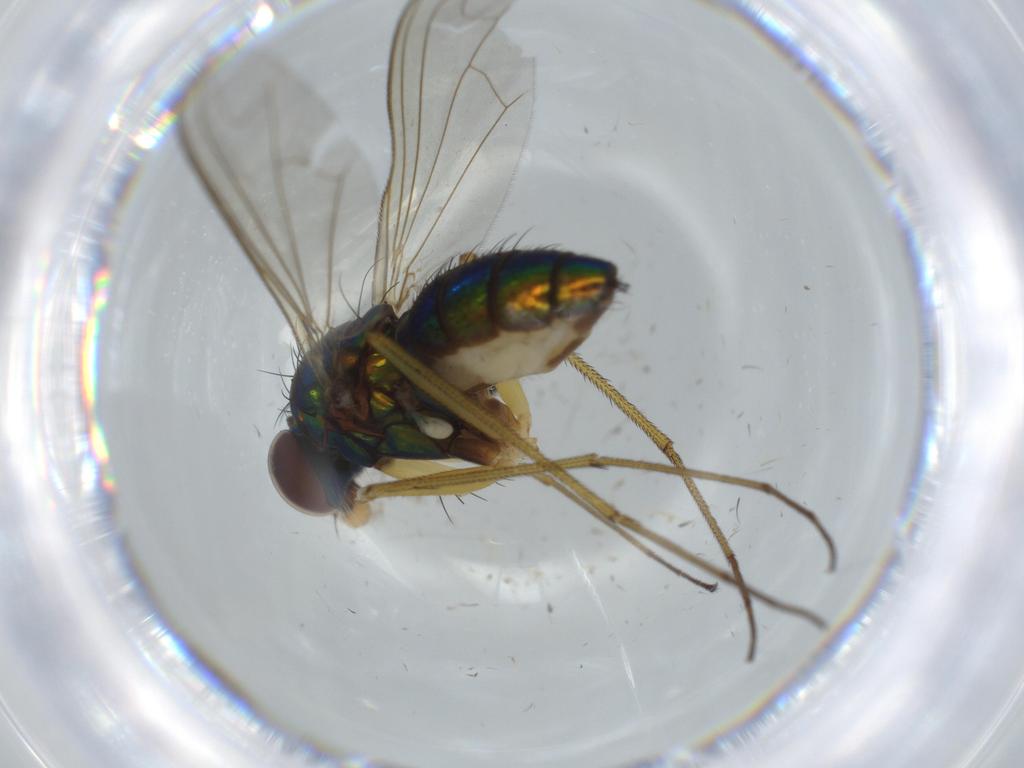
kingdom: Animalia
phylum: Arthropoda
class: Insecta
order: Diptera
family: Dolichopodidae
